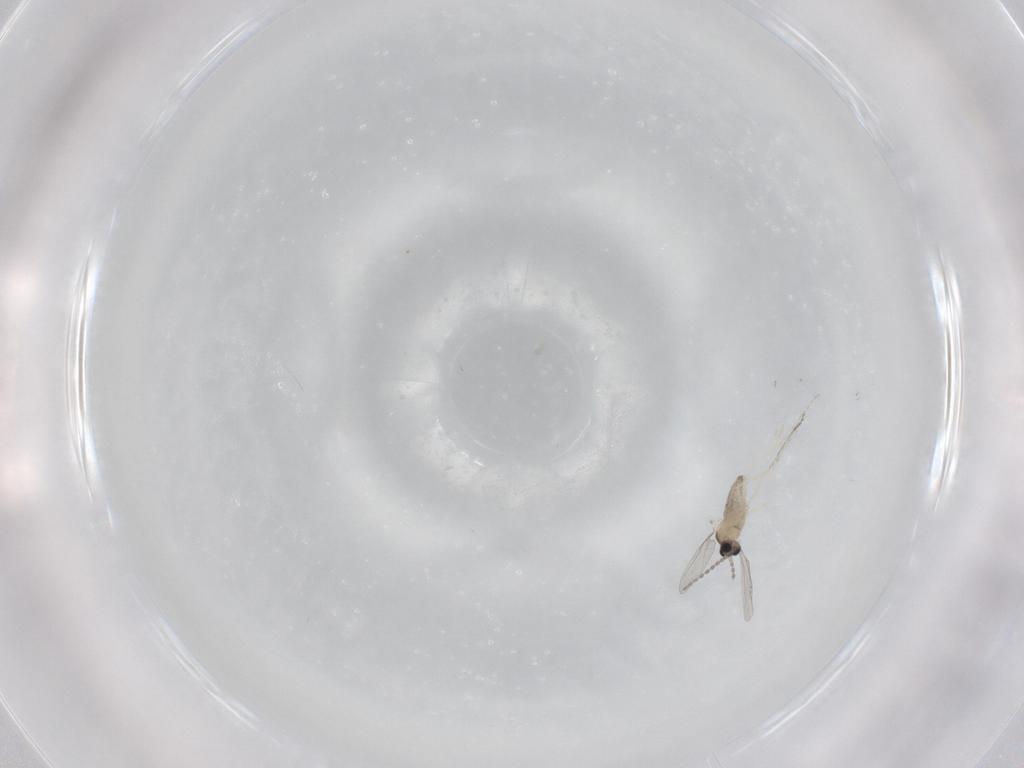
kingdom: Animalia
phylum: Arthropoda
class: Insecta
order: Diptera
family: Cecidomyiidae
